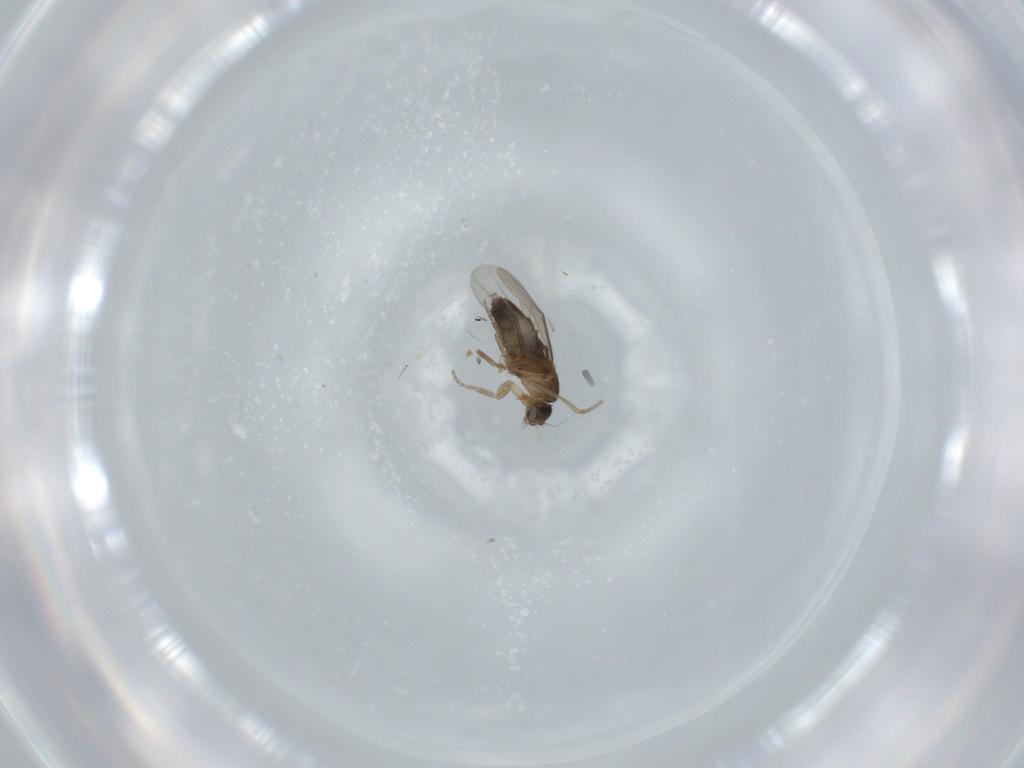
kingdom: Animalia
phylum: Arthropoda
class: Insecta
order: Diptera
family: Phoridae
